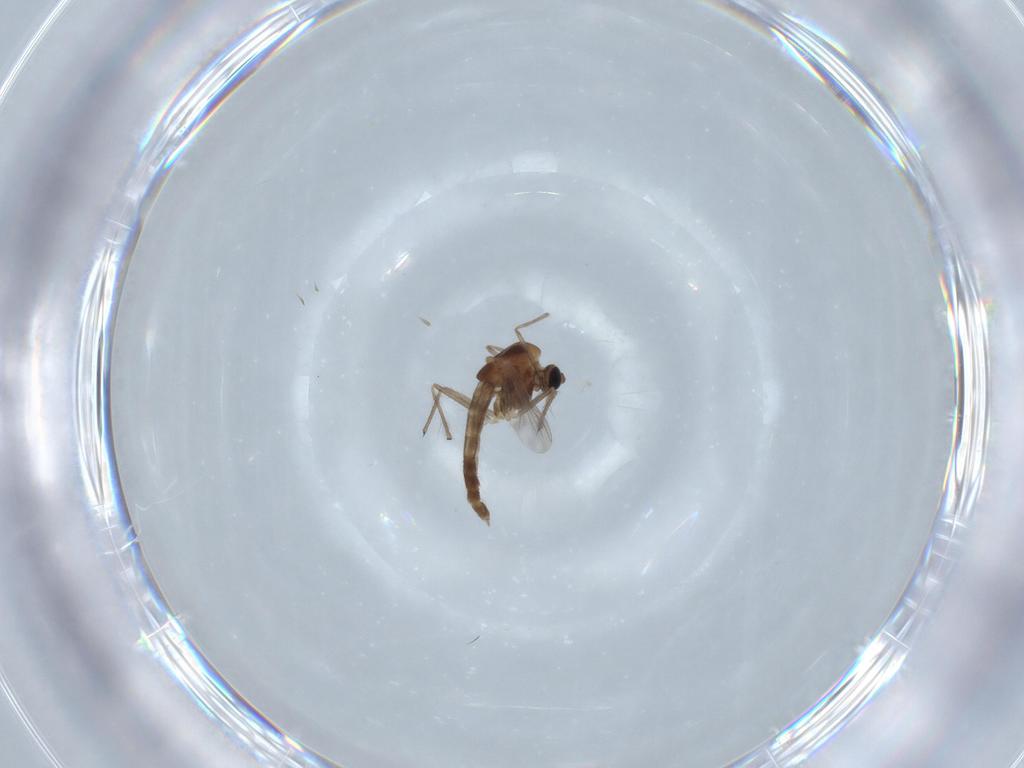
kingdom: Animalia
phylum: Arthropoda
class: Insecta
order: Diptera
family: Chironomidae
